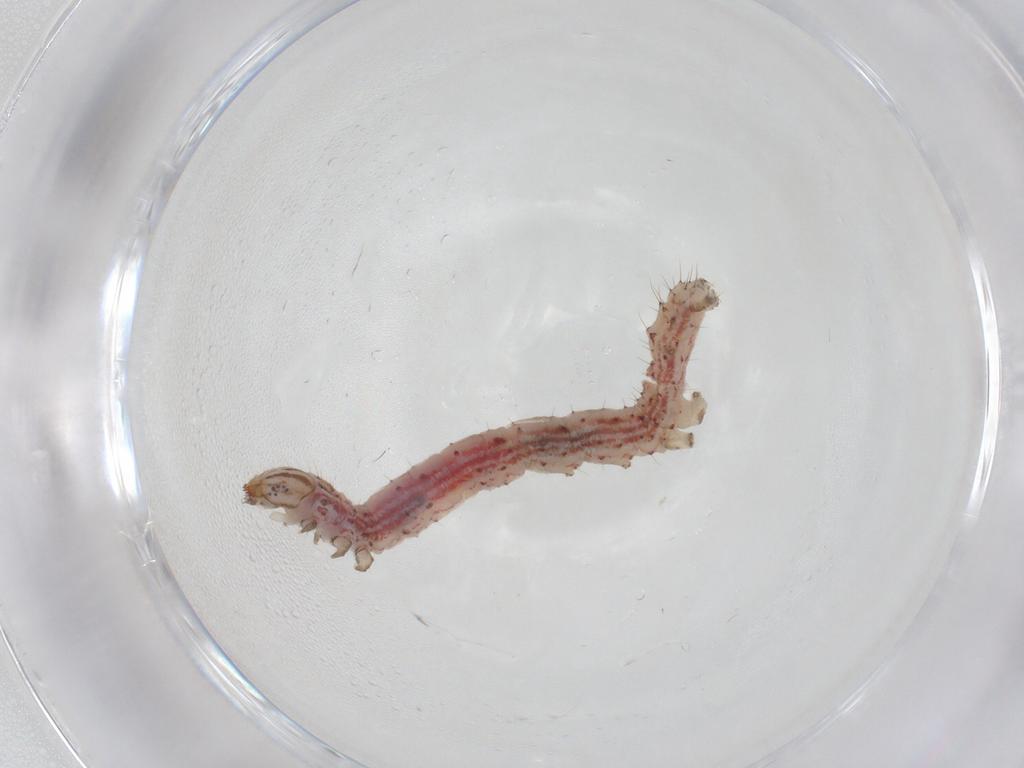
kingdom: Animalia
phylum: Arthropoda
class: Insecta
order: Lepidoptera
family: Erebidae
